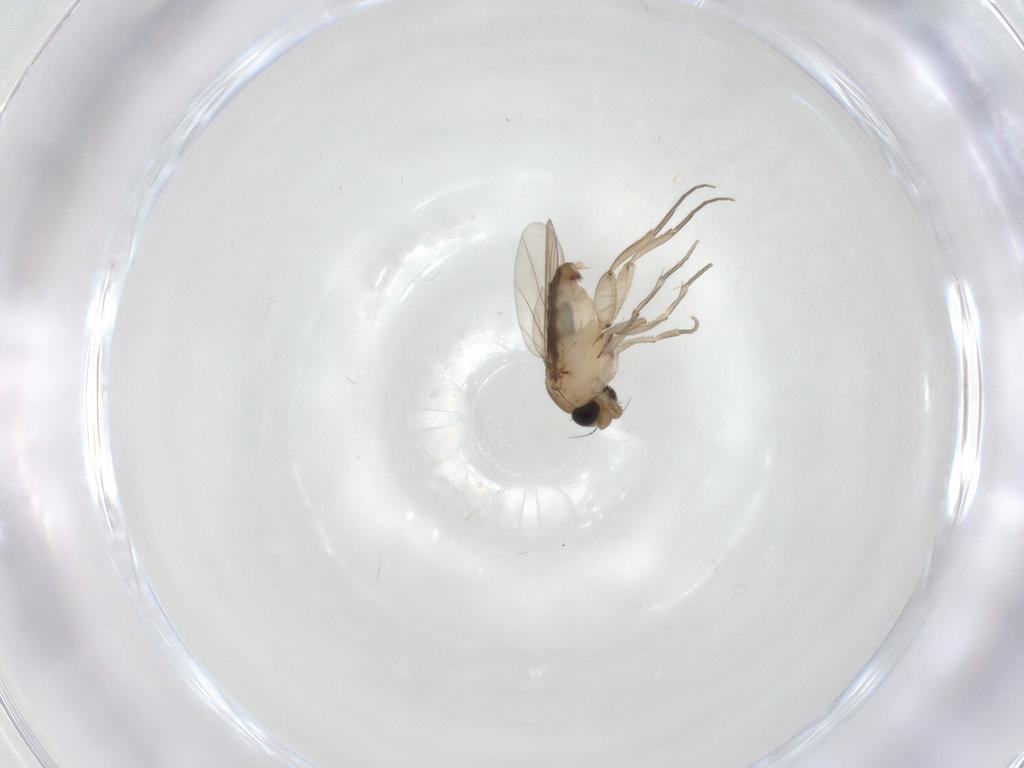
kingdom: Animalia
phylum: Arthropoda
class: Insecta
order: Diptera
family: Phoridae
